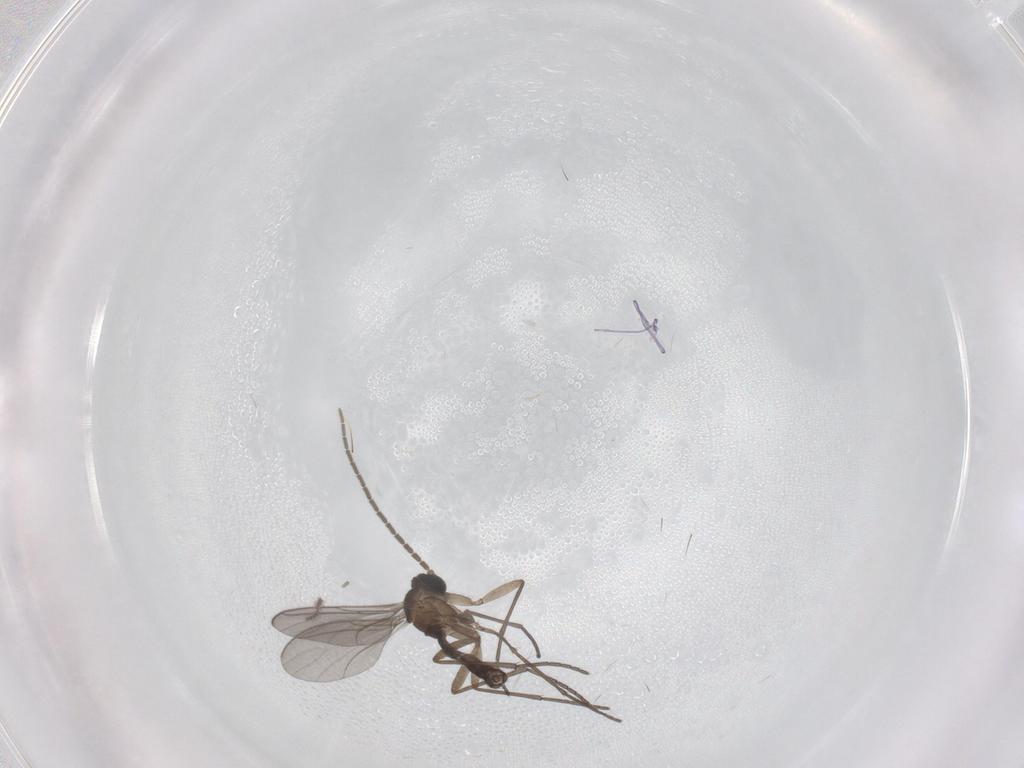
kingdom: Animalia
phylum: Arthropoda
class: Insecta
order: Diptera
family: Cecidomyiidae
